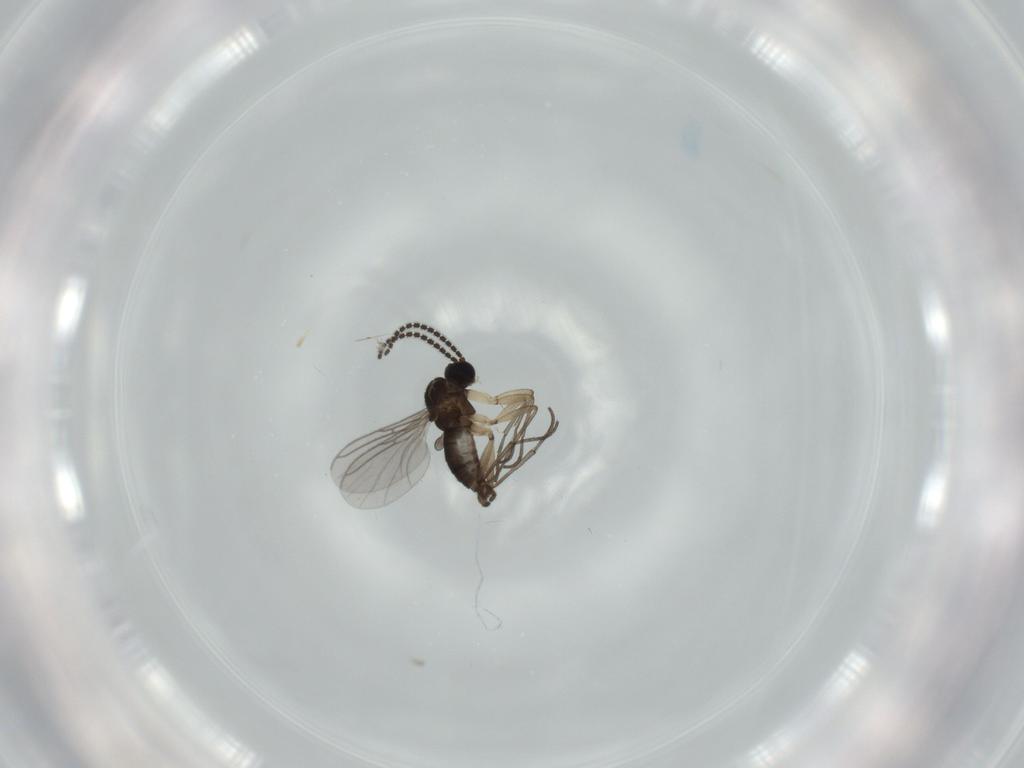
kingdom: Animalia
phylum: Arthropoda
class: Insecta
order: Diptera
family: Sciaridae
